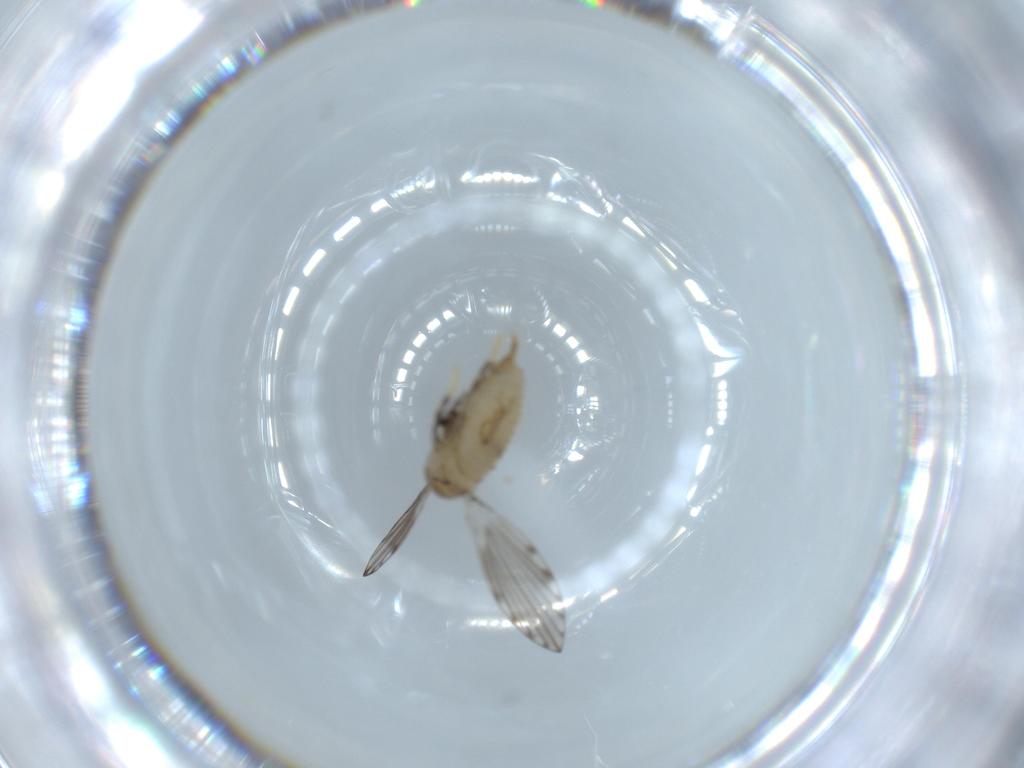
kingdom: Animalia
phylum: Arthropoda
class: Insecta
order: Diptera
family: Psychodidae
